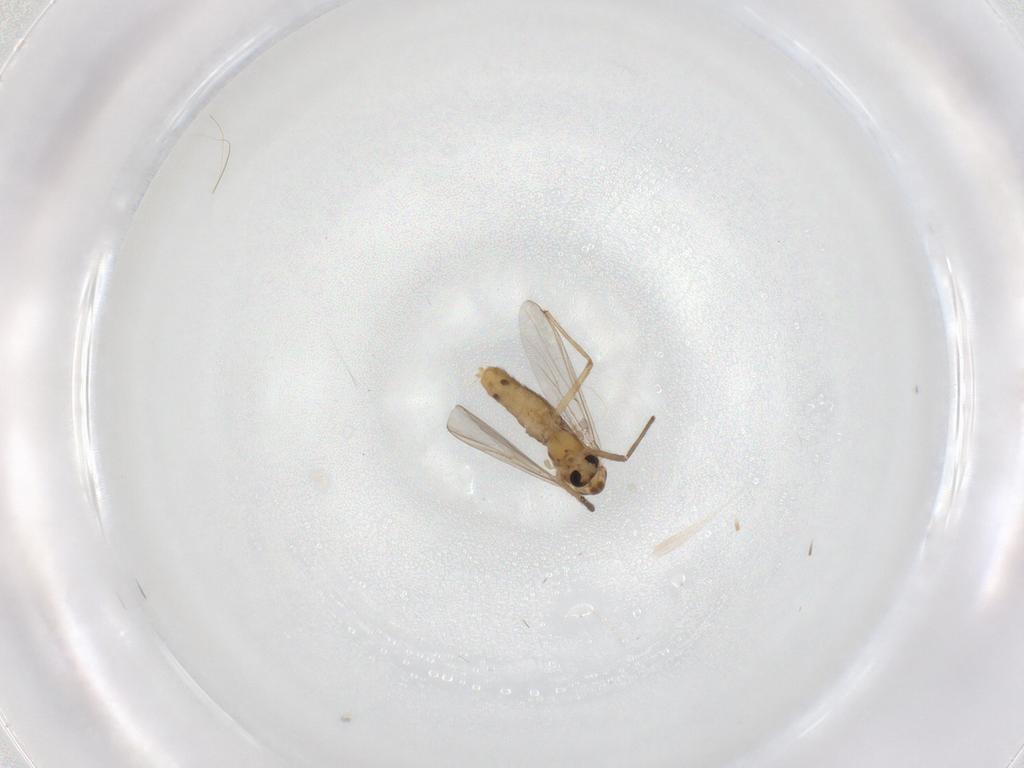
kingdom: Animalia
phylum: Arthropoda
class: Insecta
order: Diptera
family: Chironomidae
